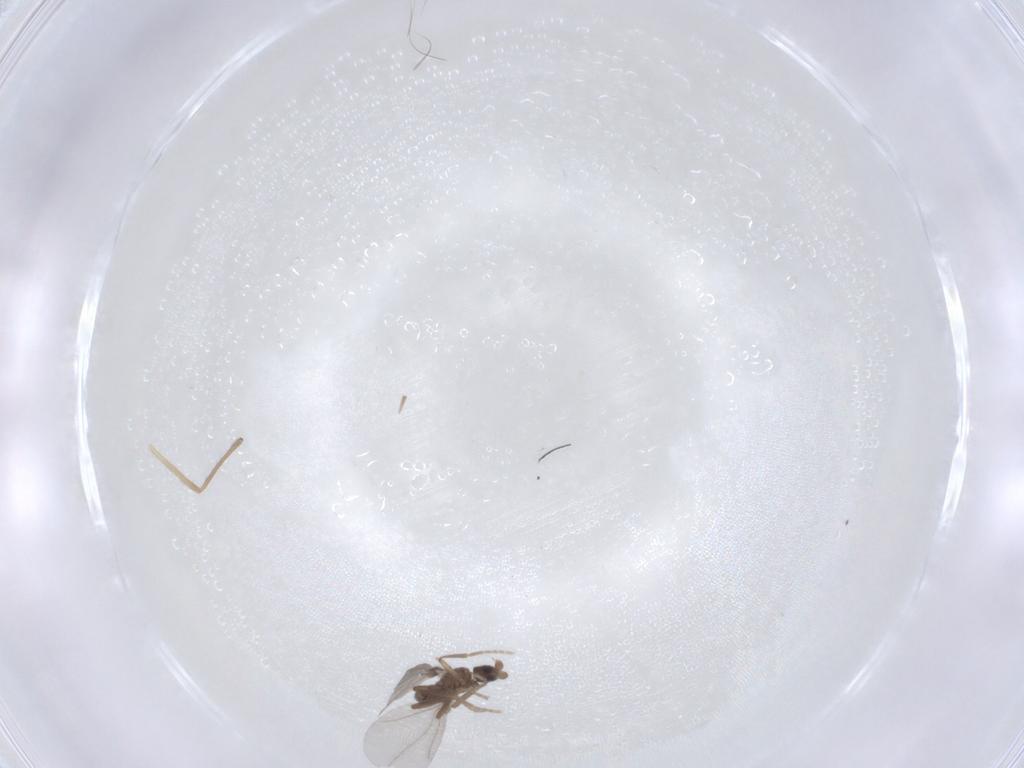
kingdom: Animalia
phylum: Arthropoda
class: Insecta
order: Diptera
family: Phoridae
